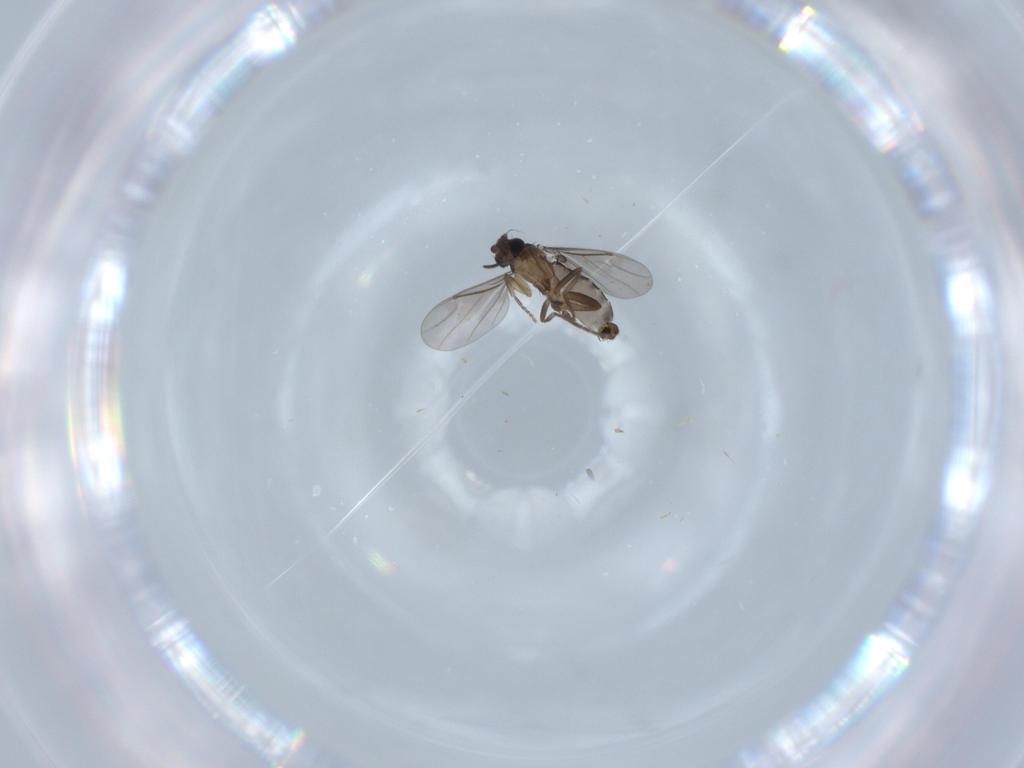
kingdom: Animalia
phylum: Arthropoda
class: Insecta
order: Diptera
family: Phoridae
